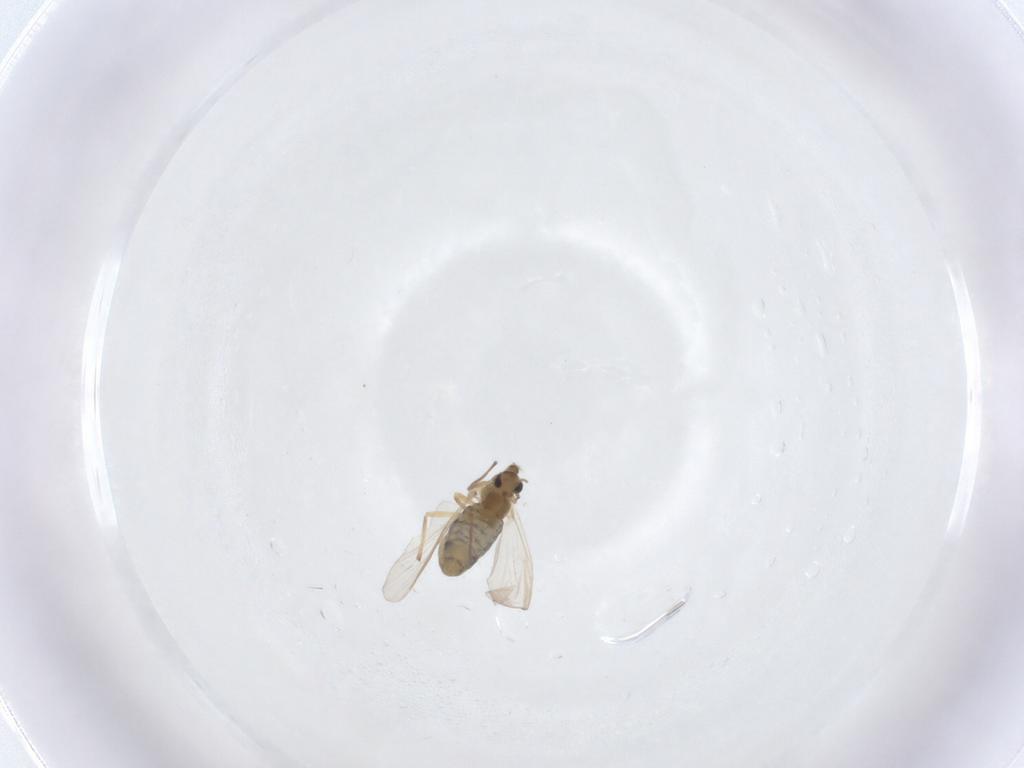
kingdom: Animalia
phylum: Arthropoda
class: Insecta
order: Diptera
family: Chironomidae
